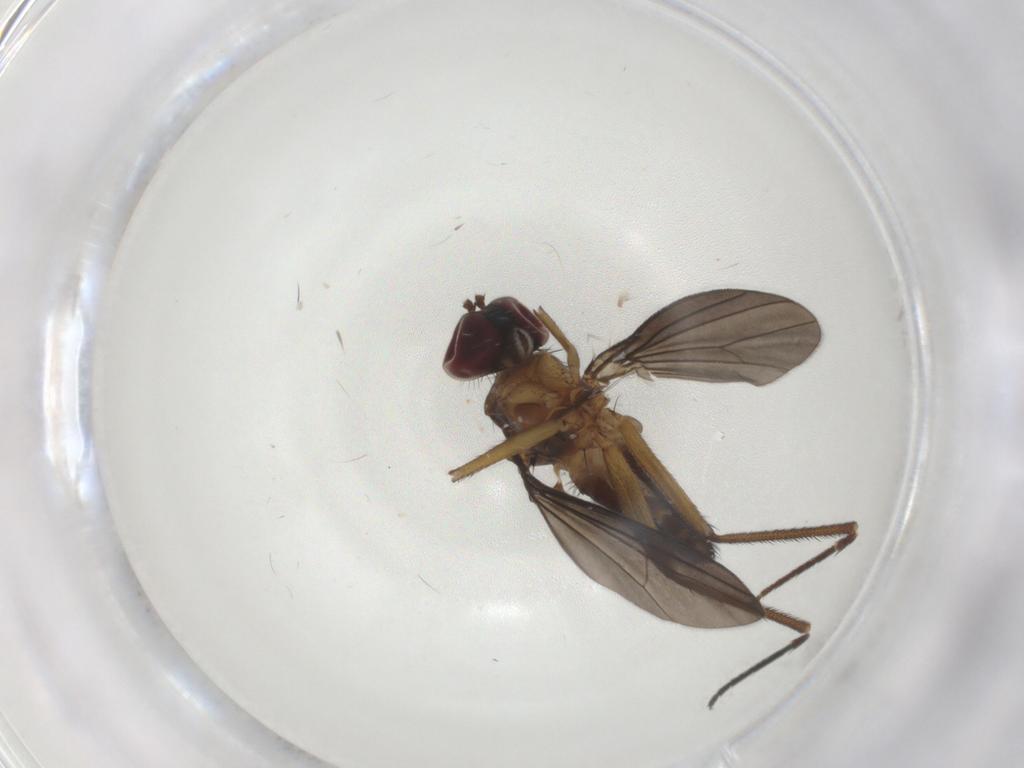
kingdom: Animalia
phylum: Arthropoda
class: Insecta
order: Diptera
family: Dolichopodidae
